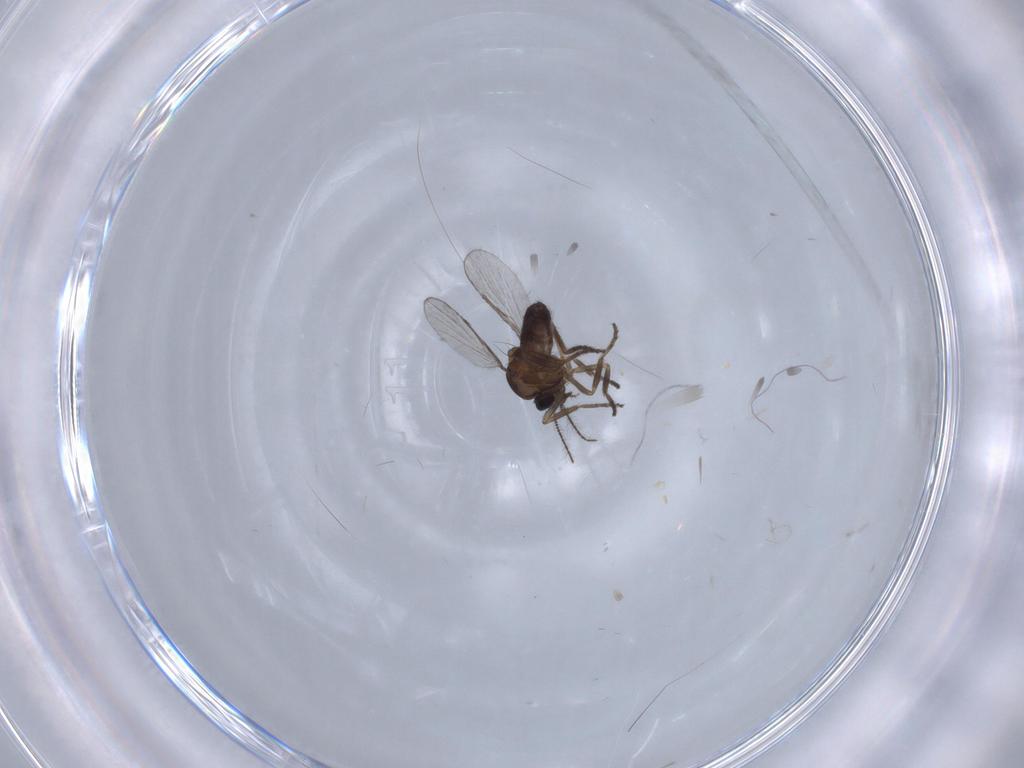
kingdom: Animalia
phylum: Arthropoda
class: Insecta
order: Diptera
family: Chironomidae
